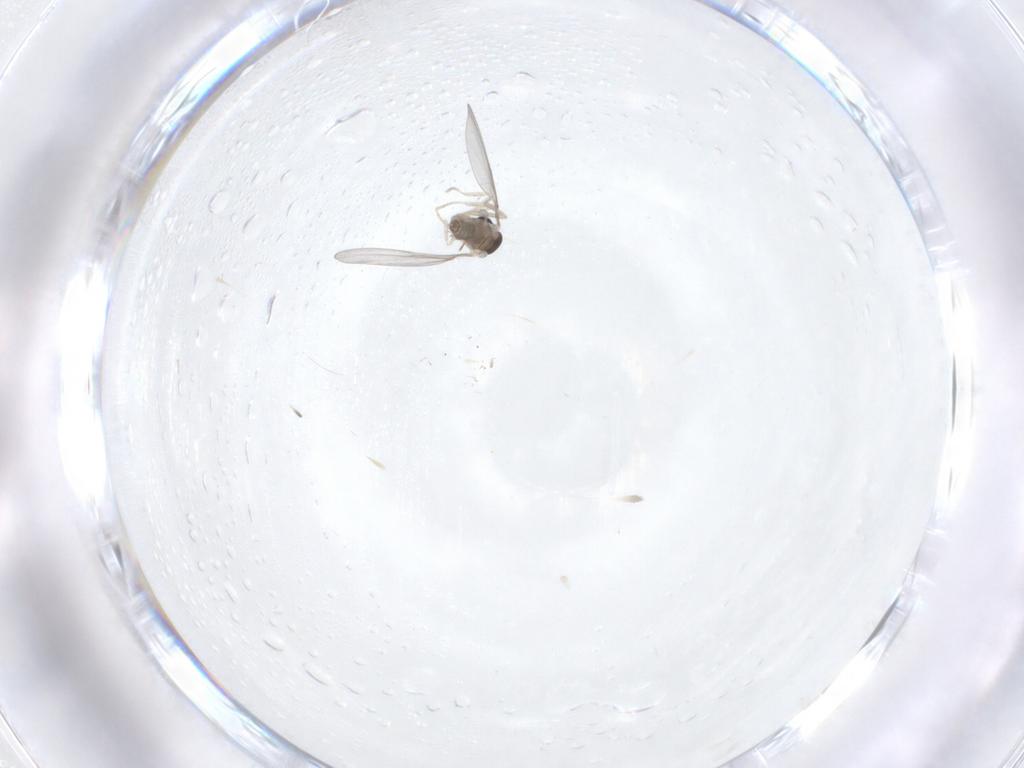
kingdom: Animalia
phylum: Arthropoda
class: Insecta
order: Diptera
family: Cecidomyiidae
